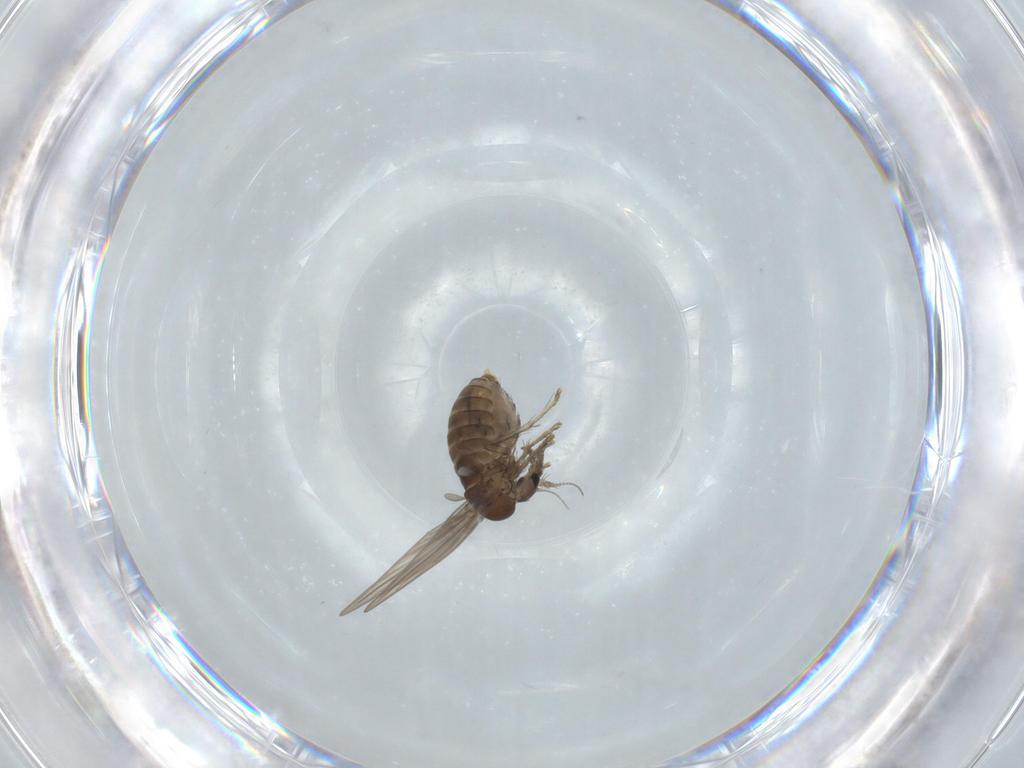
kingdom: Animalia
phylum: Arthropoda
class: Insecta
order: Diptera
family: Psychodidae
